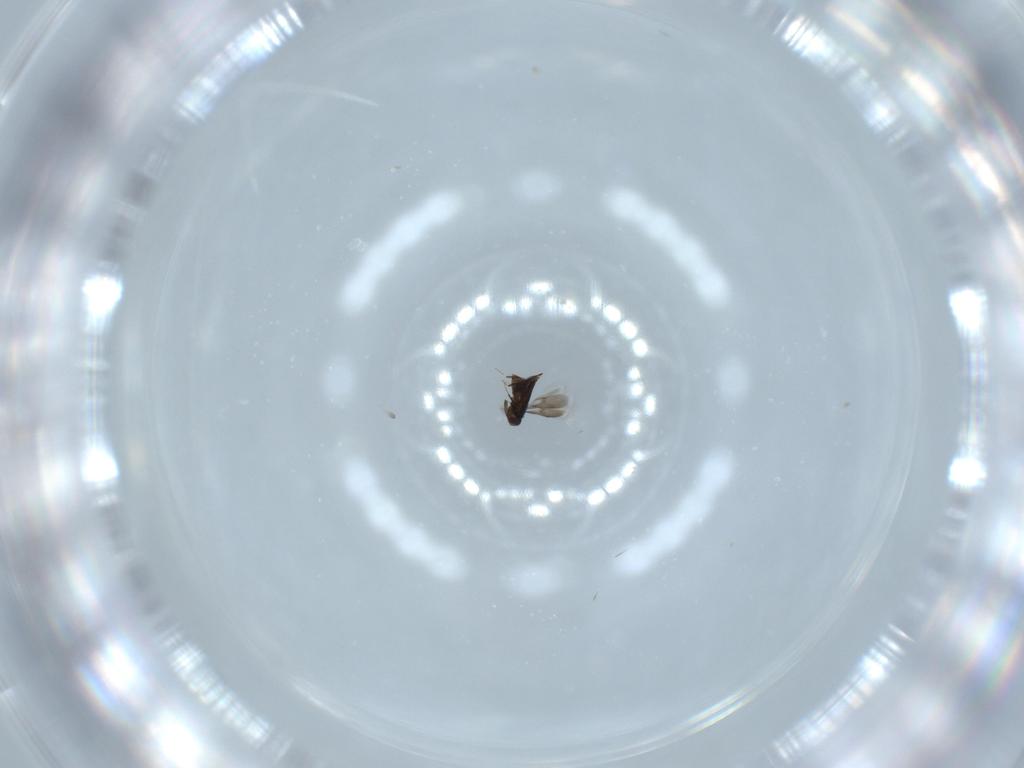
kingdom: Animalia
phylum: Arthropoda
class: Insecta
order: Hymenoptera
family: Signiphoridae
